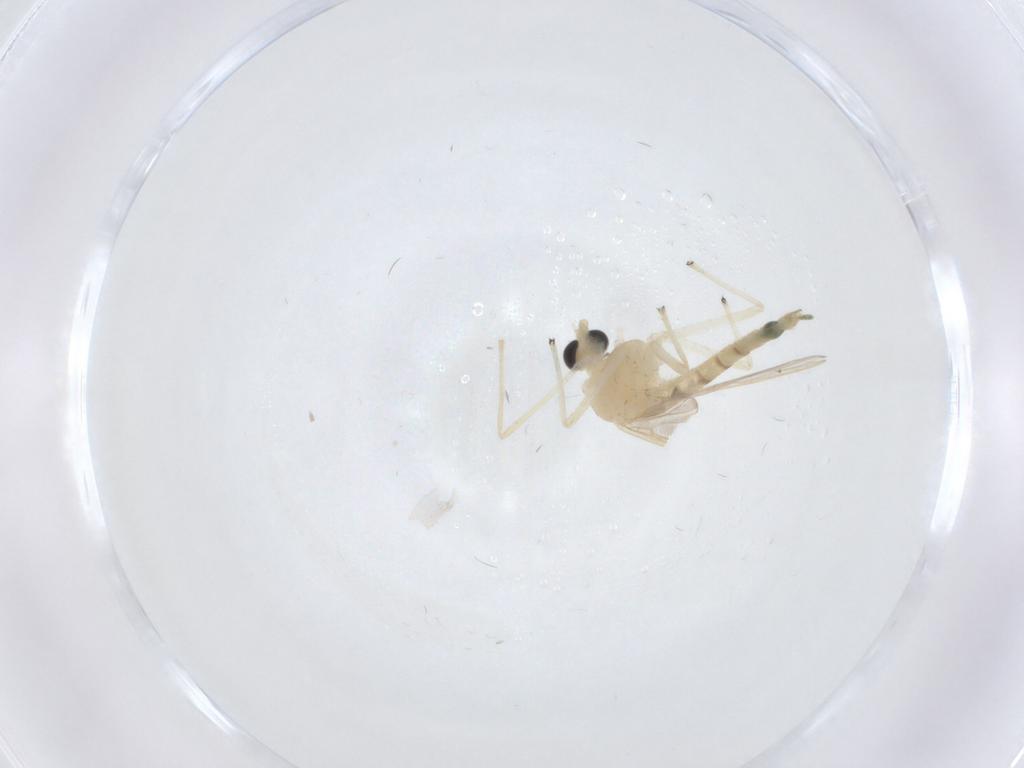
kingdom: Animalia
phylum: Arthropoda
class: Insecta
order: Diptera
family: Chironomidae
